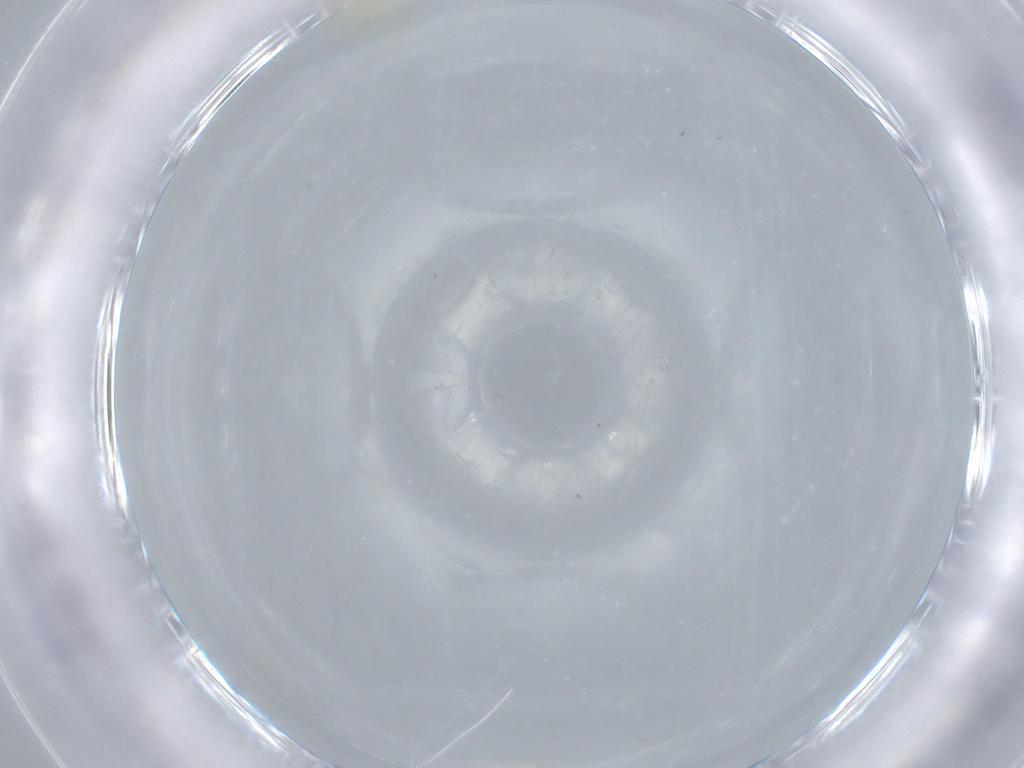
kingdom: Animalia
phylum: Arthropoda
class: Insecta
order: Diptera
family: Cecidomyiidae
